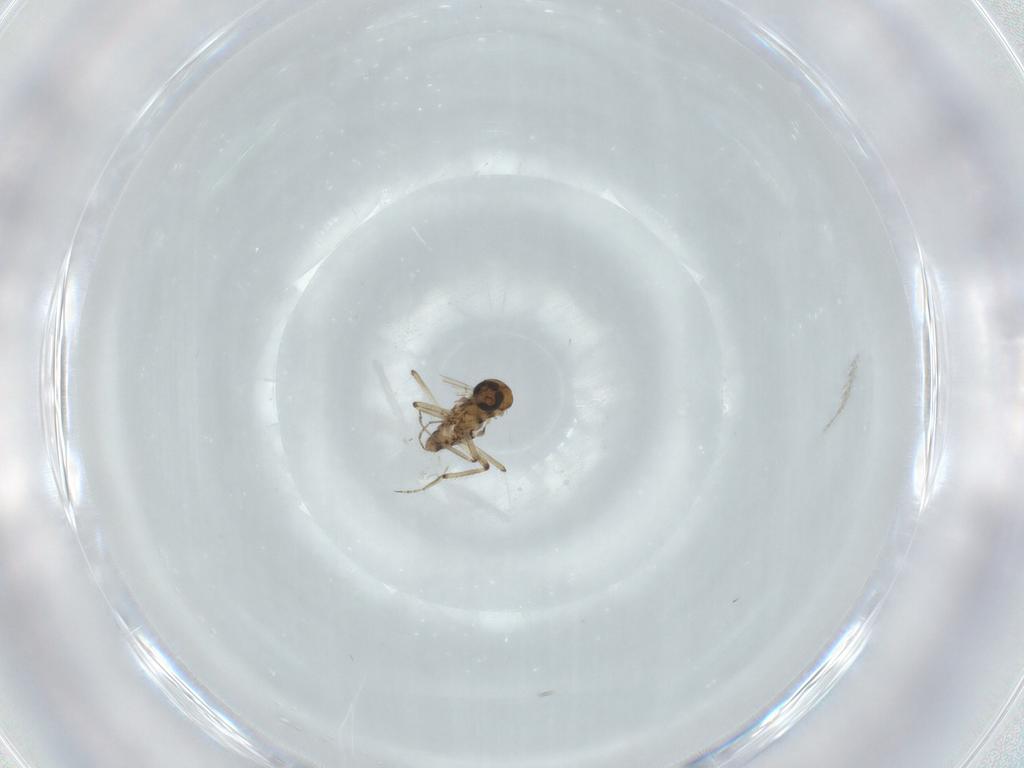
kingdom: Animalia
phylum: Arthropoda
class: Insecta
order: Diptera
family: Ceratopogonidae
